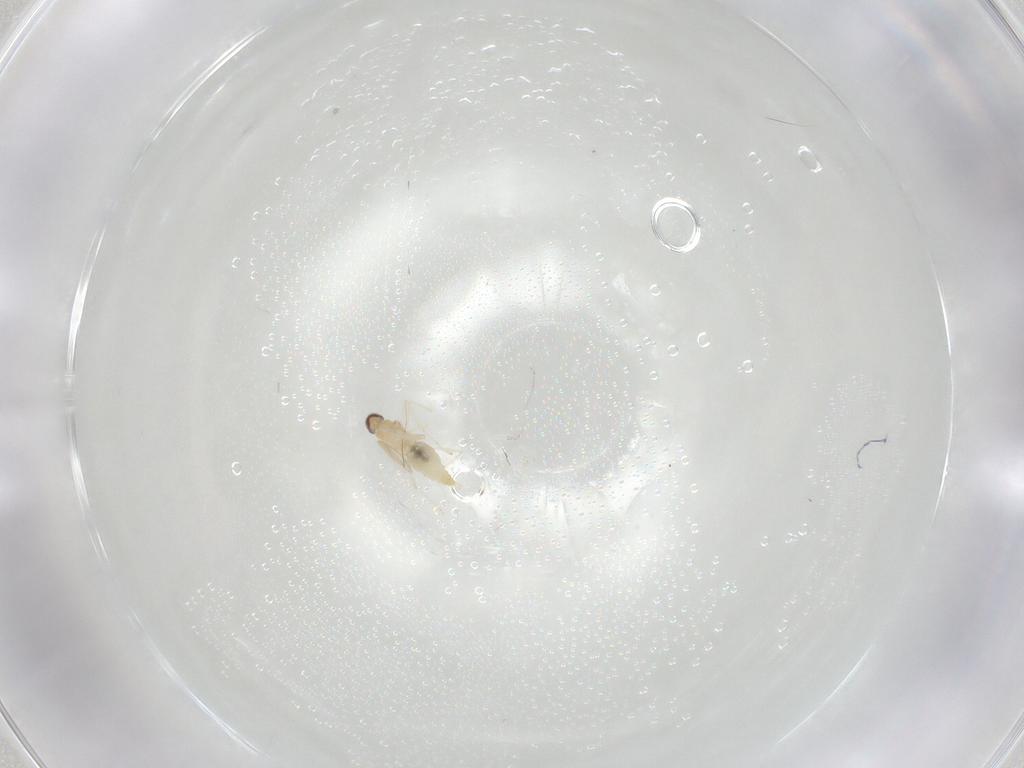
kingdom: Animalia
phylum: Arthropoda
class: Insecta
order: Diptera
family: Cecidomyiidae
